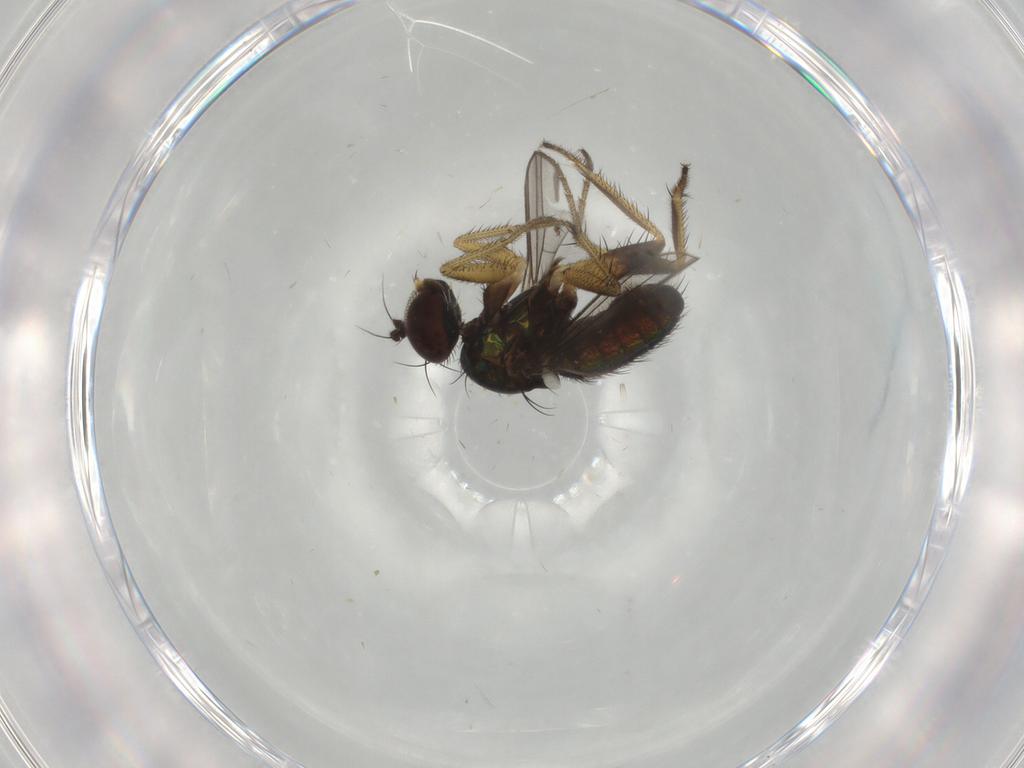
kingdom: Animalia
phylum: Arthropoda
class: Insecta
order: Diptera
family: Dolichopodidae
